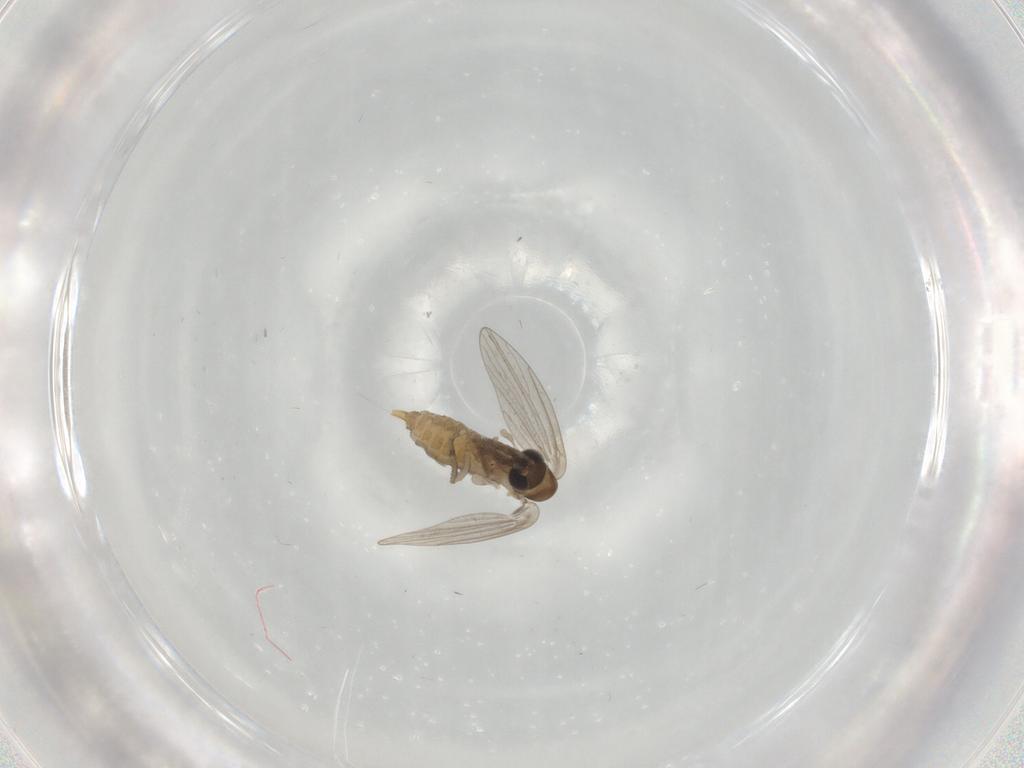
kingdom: Animalia
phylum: Arthropoda
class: Insecta
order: Diptera
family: Psychodidae
